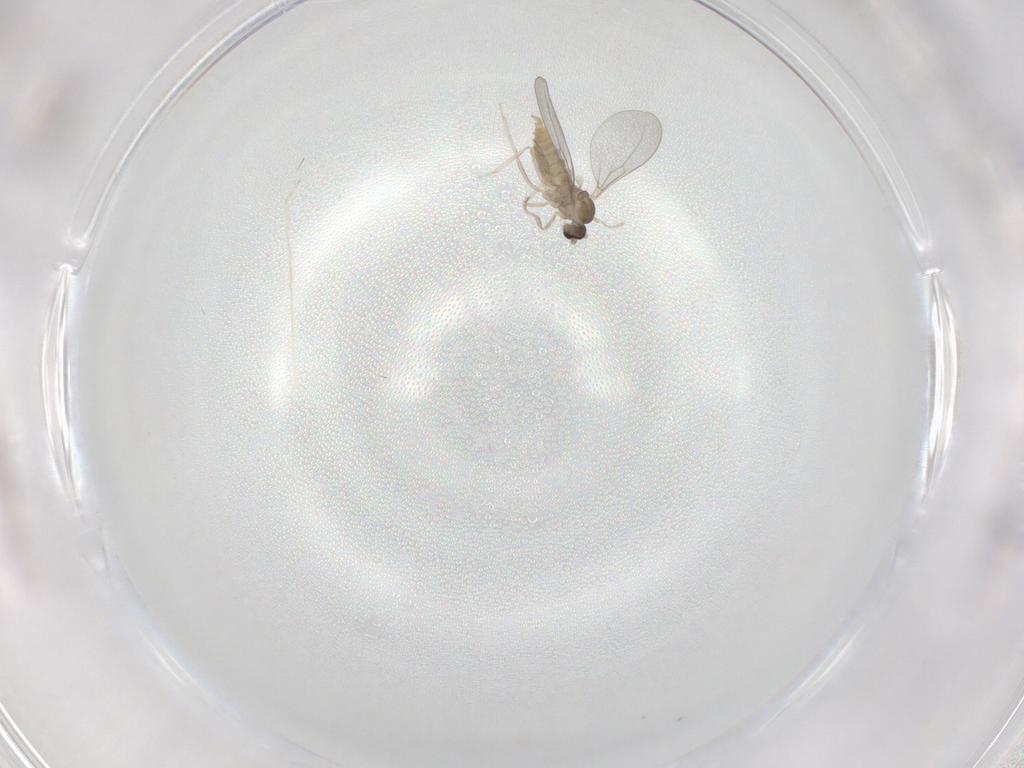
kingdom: Animalia
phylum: Arthropoda
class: Insecta
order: Diptera
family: Cecidomyiidae
